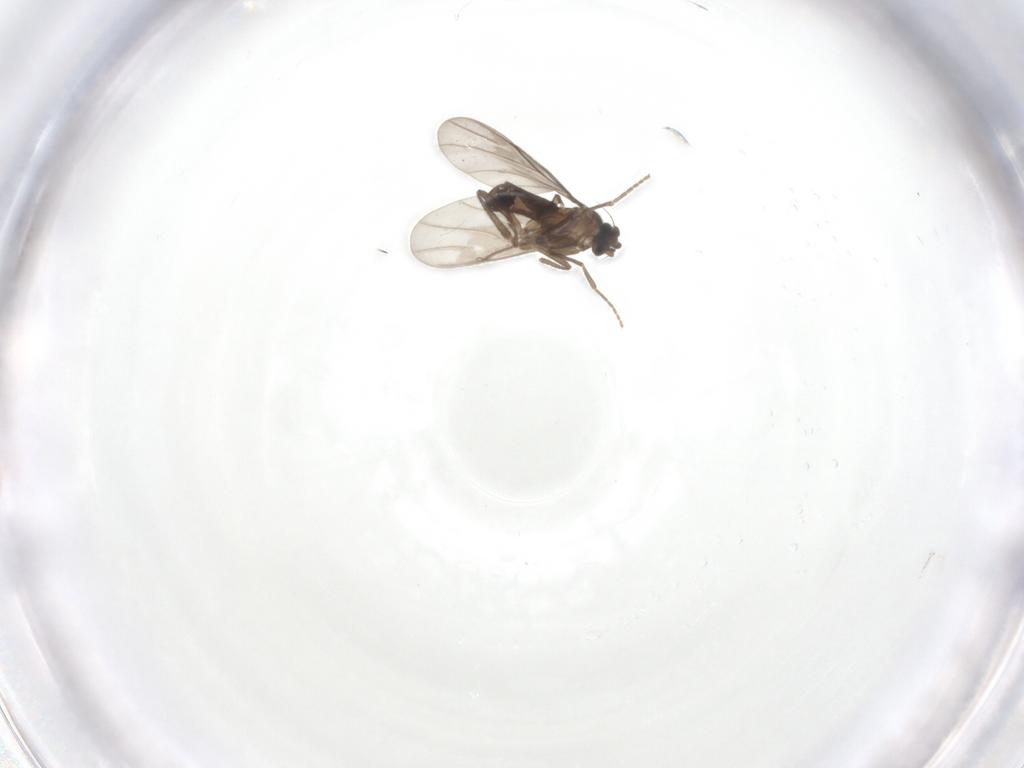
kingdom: Animalia
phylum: Arthropoda
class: Insecta
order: Diptera
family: Phoridae
